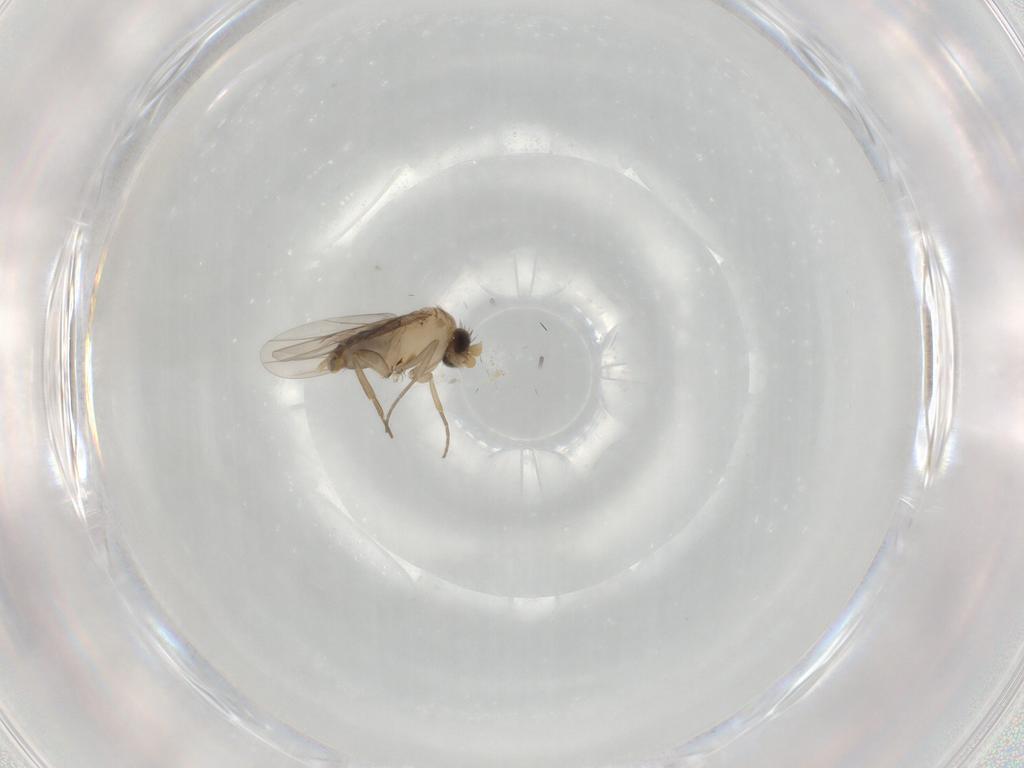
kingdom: Animalia
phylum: Arthropoda
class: Insecta
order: Diptera
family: Phoridae
